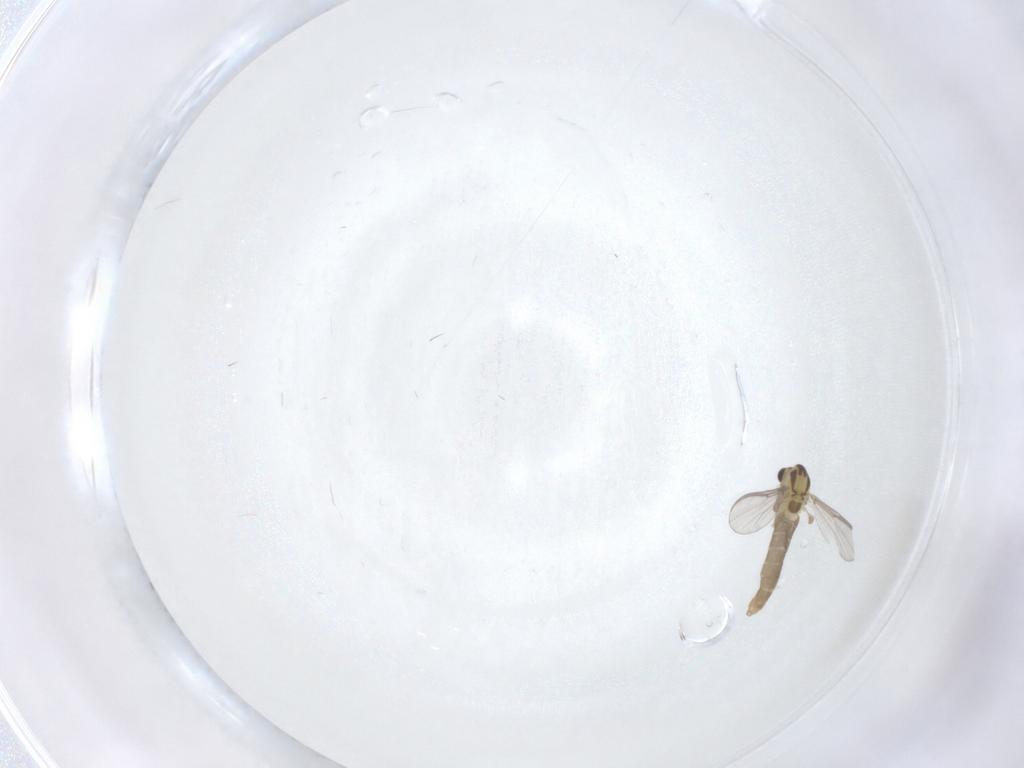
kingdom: Animalia
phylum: Arthropoda
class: Insecta
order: Diptera
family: Chironomidae
